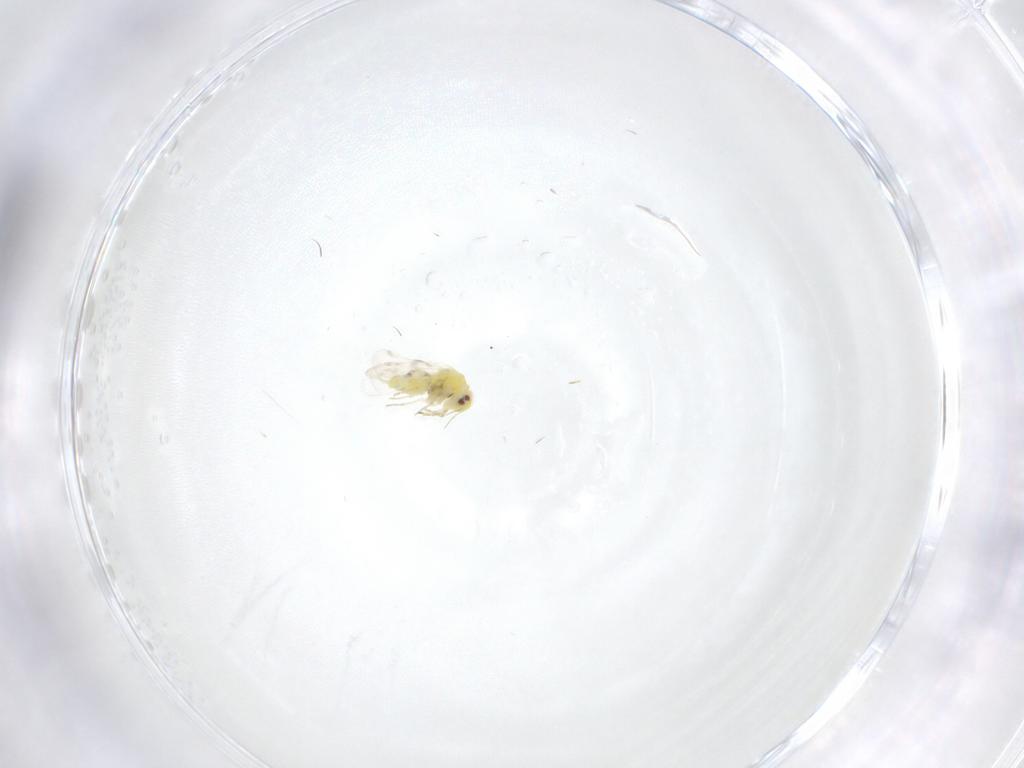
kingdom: Animalia
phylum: Arthropoda
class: Insecta
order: Hemiptera
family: Aleyrodidae
